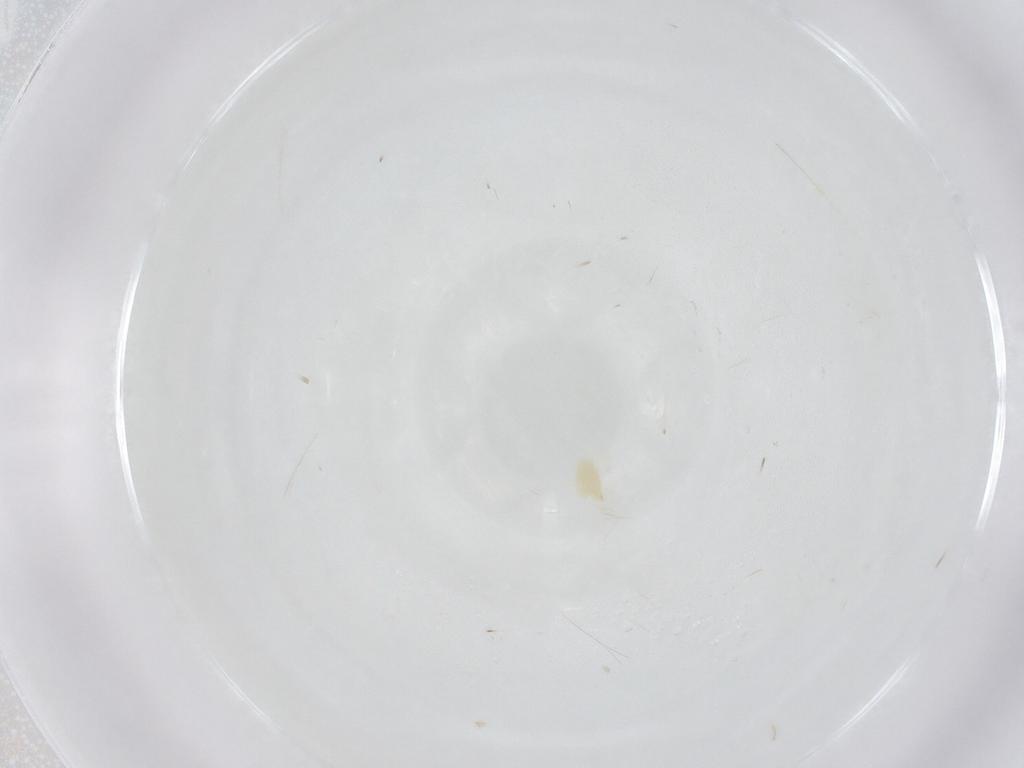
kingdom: Animalia
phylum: Arthropoda
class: Arachnida
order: Trombidiformes
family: Tetranychidae
